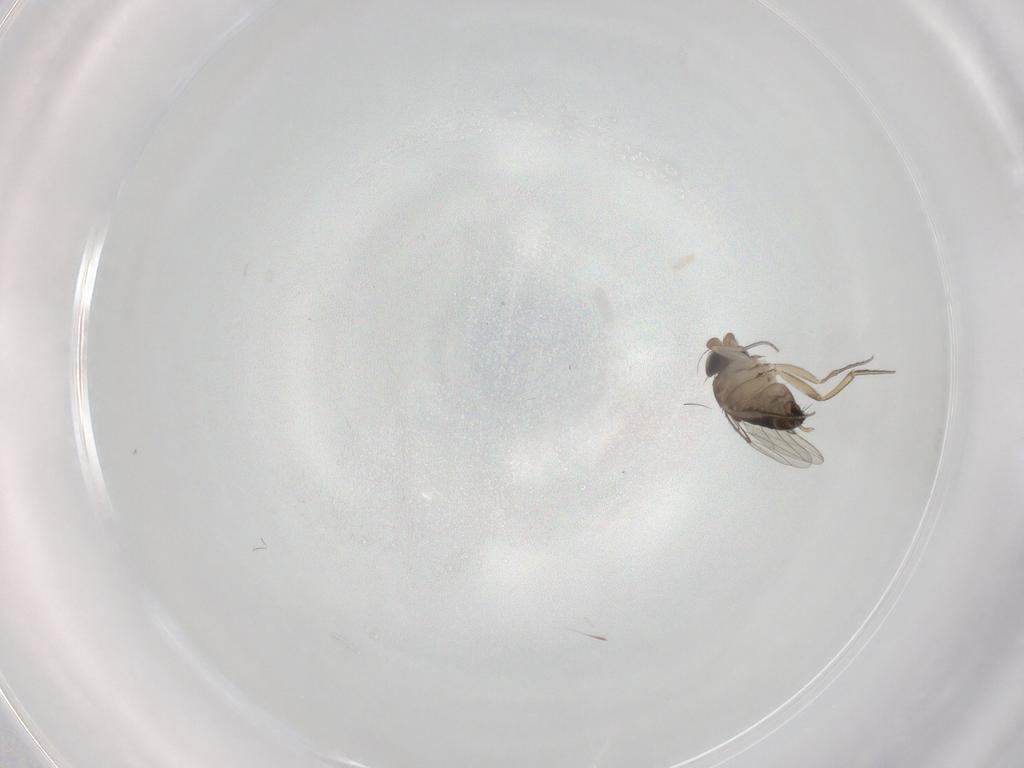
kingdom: Animalia
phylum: Arthropoda
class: Insecta
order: Diptera
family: Phoridae
